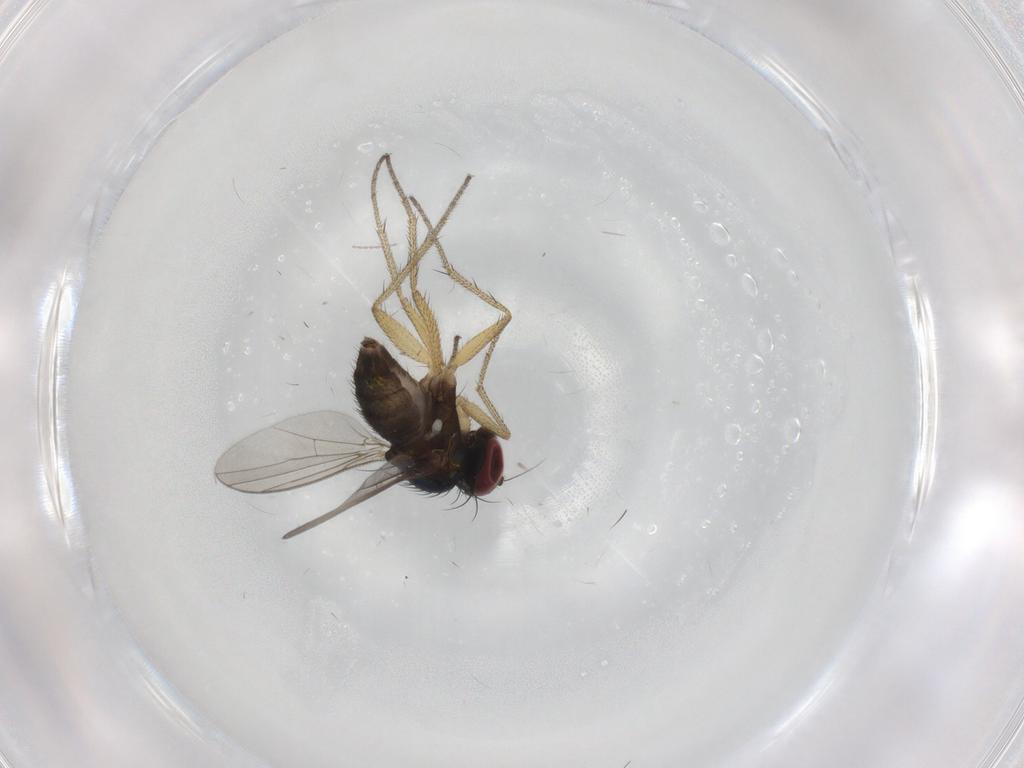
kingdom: Animalia
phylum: Arthropoda
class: Insecta
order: Diptera
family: Dolichopodidae
